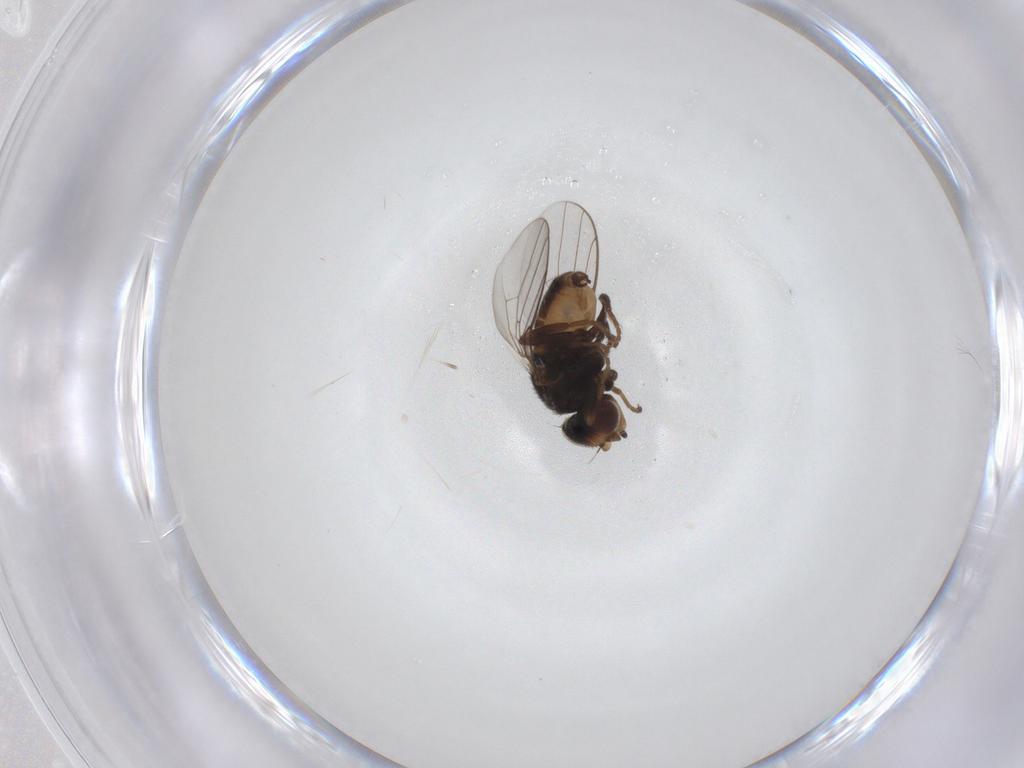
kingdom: Animalia
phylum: Arthropoda
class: Insecta
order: Diptera
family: Chloropidae
